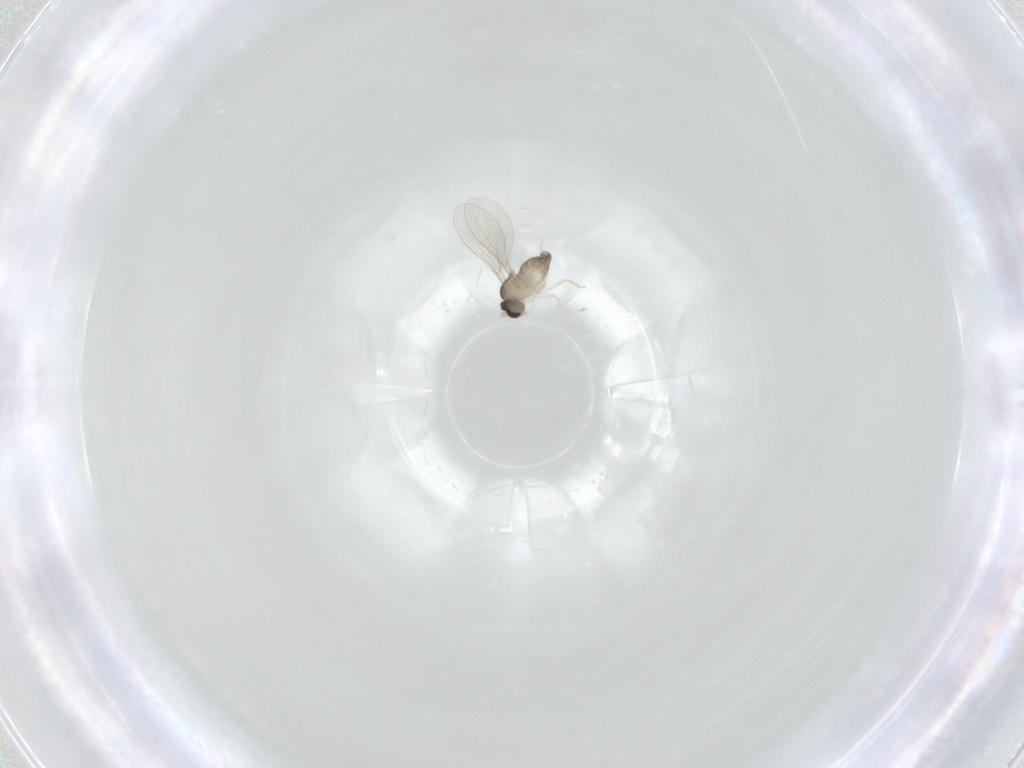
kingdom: Animalia
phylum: Arthropoda
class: Insecta
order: Diptera
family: Cecidomyiidae
